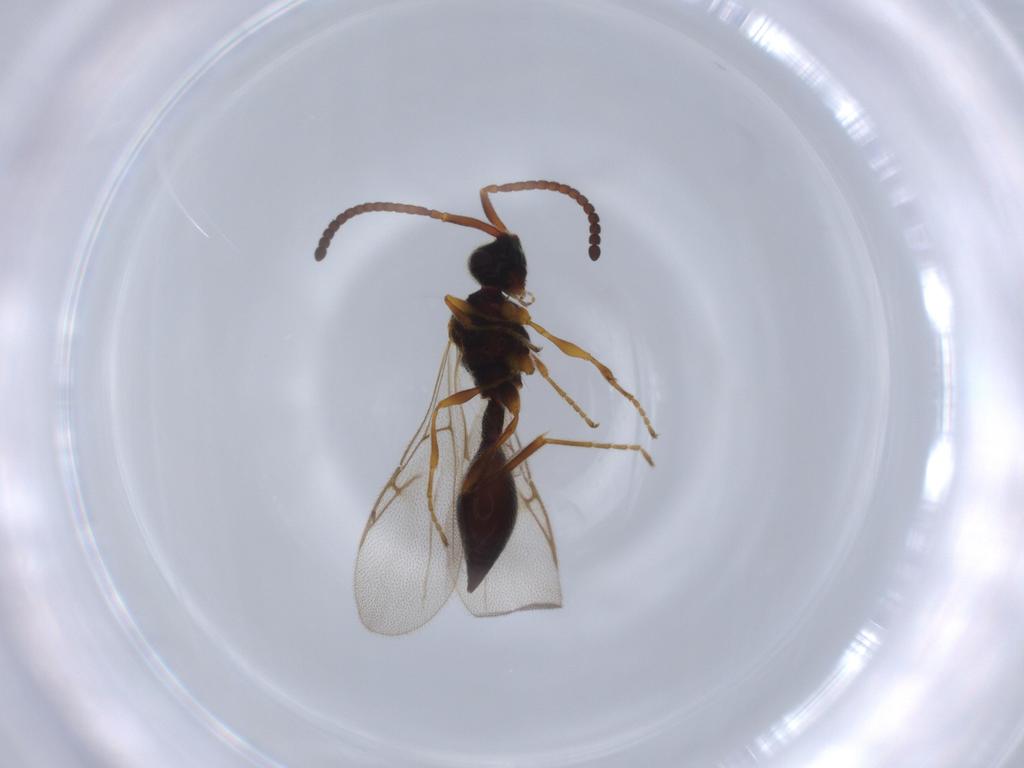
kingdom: Animalia
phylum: Arthropoda
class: Insecta
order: Hymenoptera
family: Diapriidae
